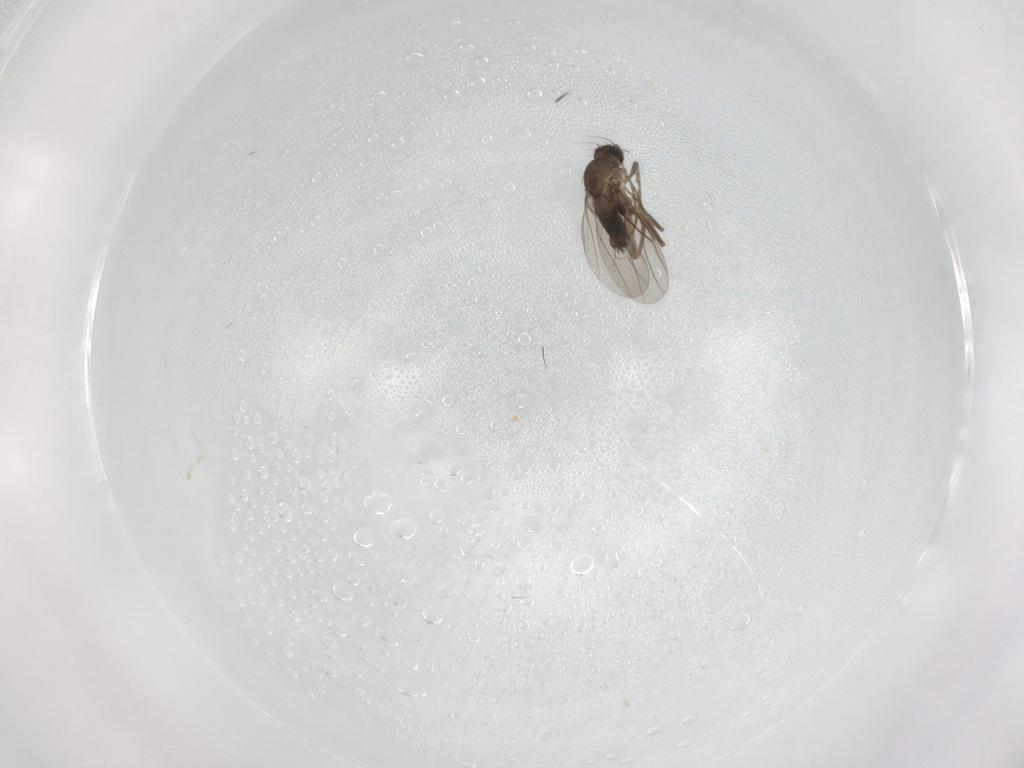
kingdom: Animalia
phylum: Arthropoda
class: Insecta
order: Diptera
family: Phoridae
